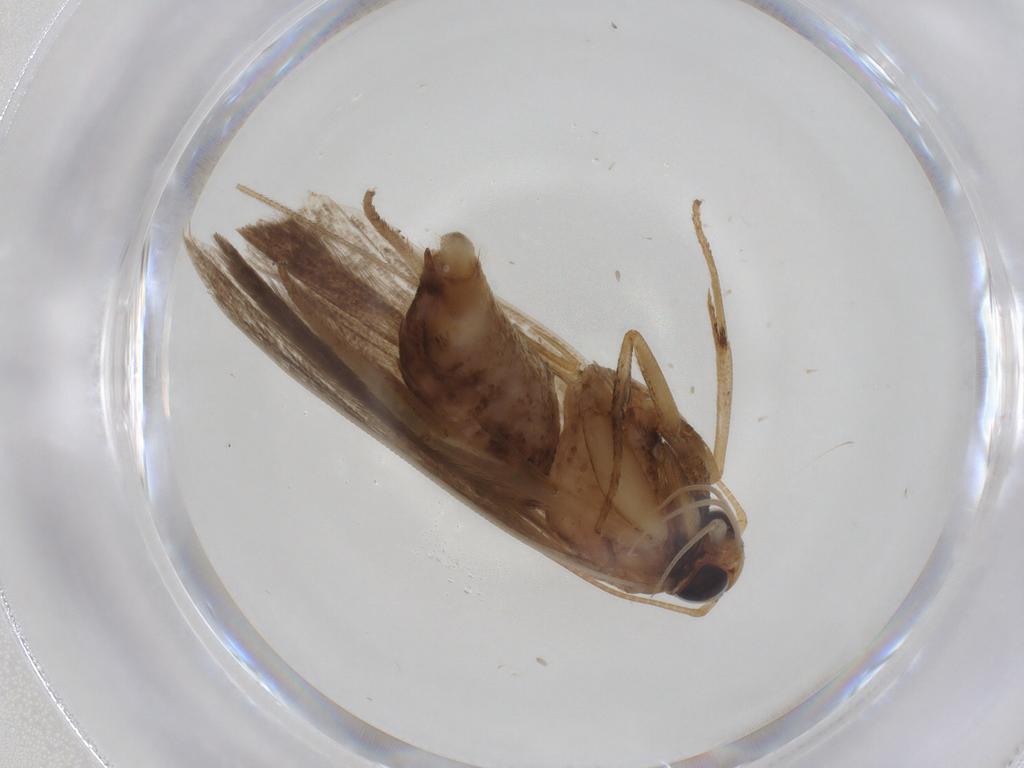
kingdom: Animalia
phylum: Arthropoda
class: Insecta
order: Lepidoptera
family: Gelechiidae
